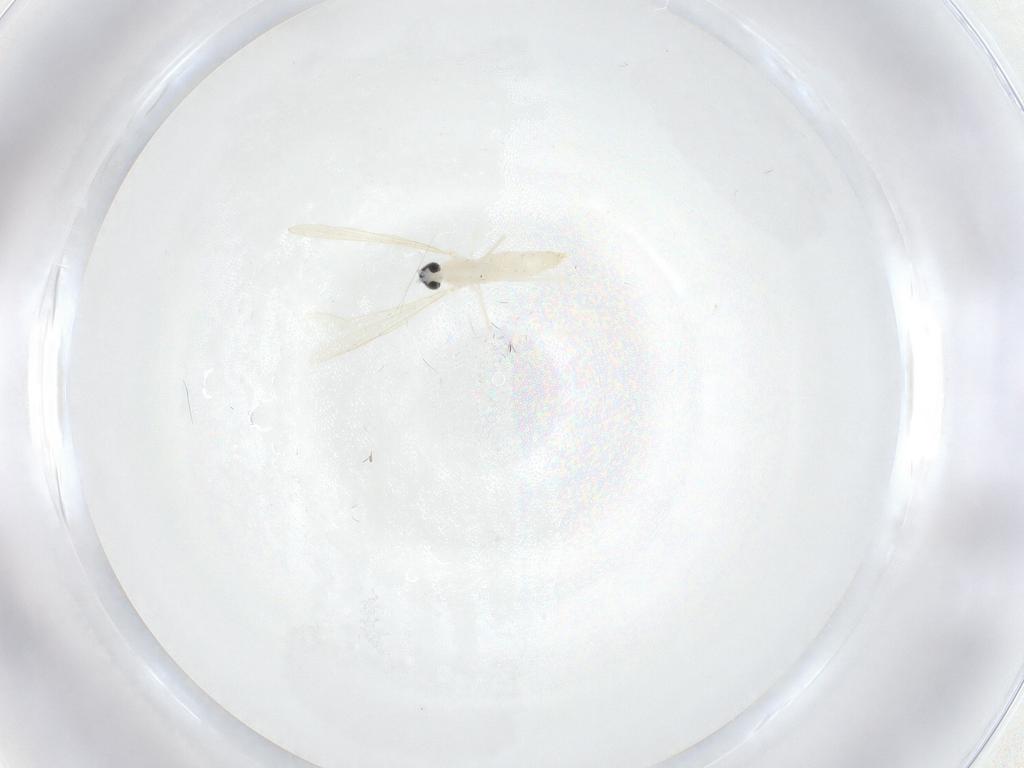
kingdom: Animalia
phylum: Arthropoda
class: Insecta
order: Diptera
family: Cecidomyiidae
